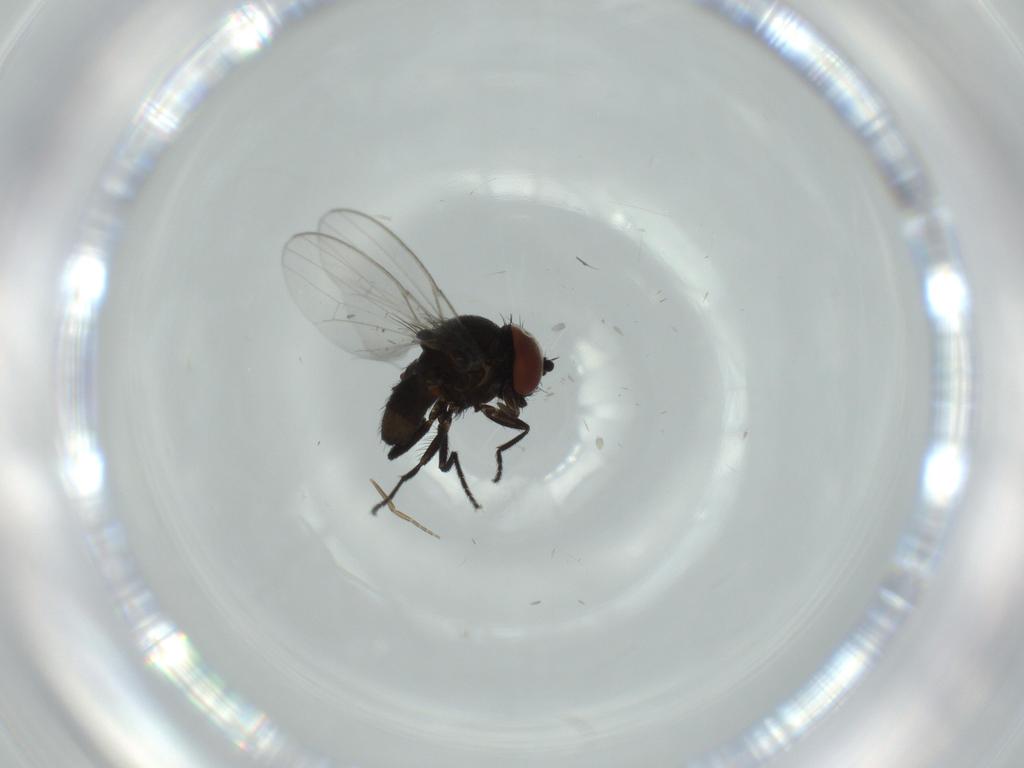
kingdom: Animalia
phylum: Arthropoda
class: Insecta
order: Diptera
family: Milichiidae
